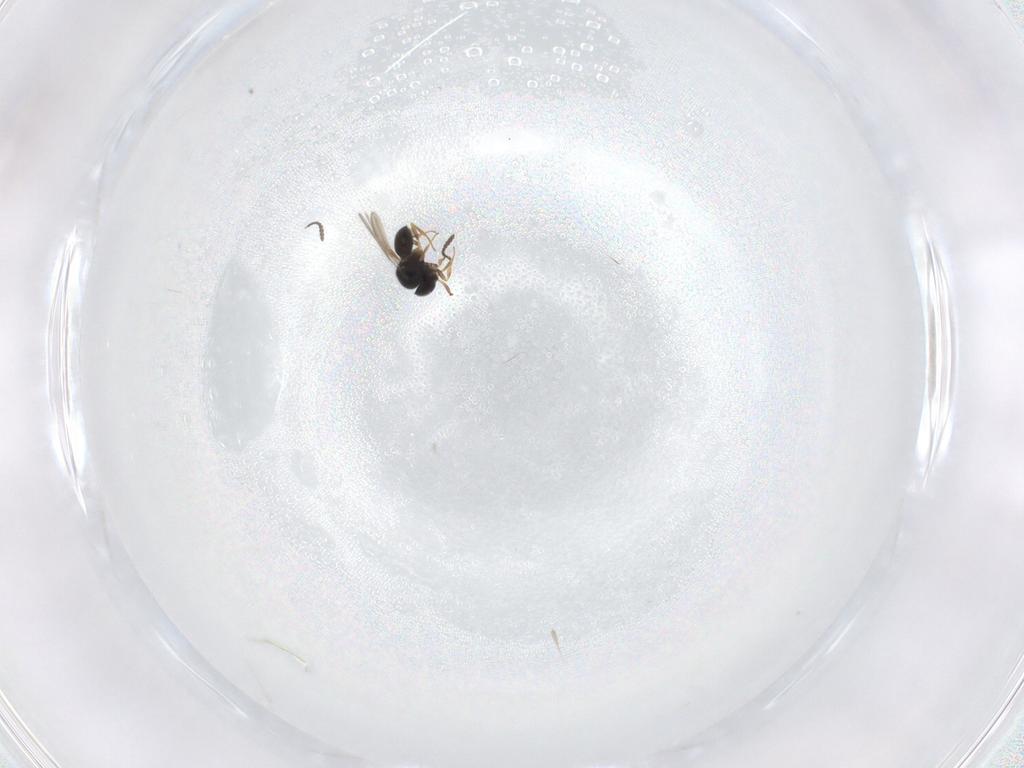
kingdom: Animalia
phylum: Arthropoda
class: Insecta
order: Hymenoptera
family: Scelionidae
